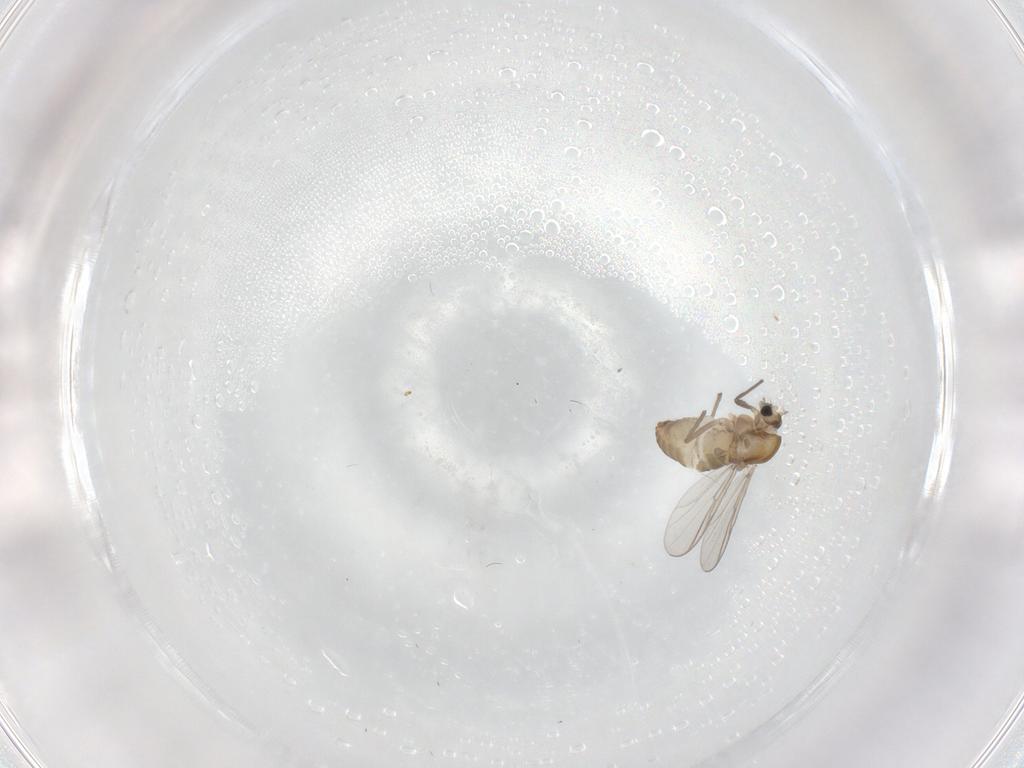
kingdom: Animalia
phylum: Arthropoda
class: Insecta
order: Diptera
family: Chironomidae
